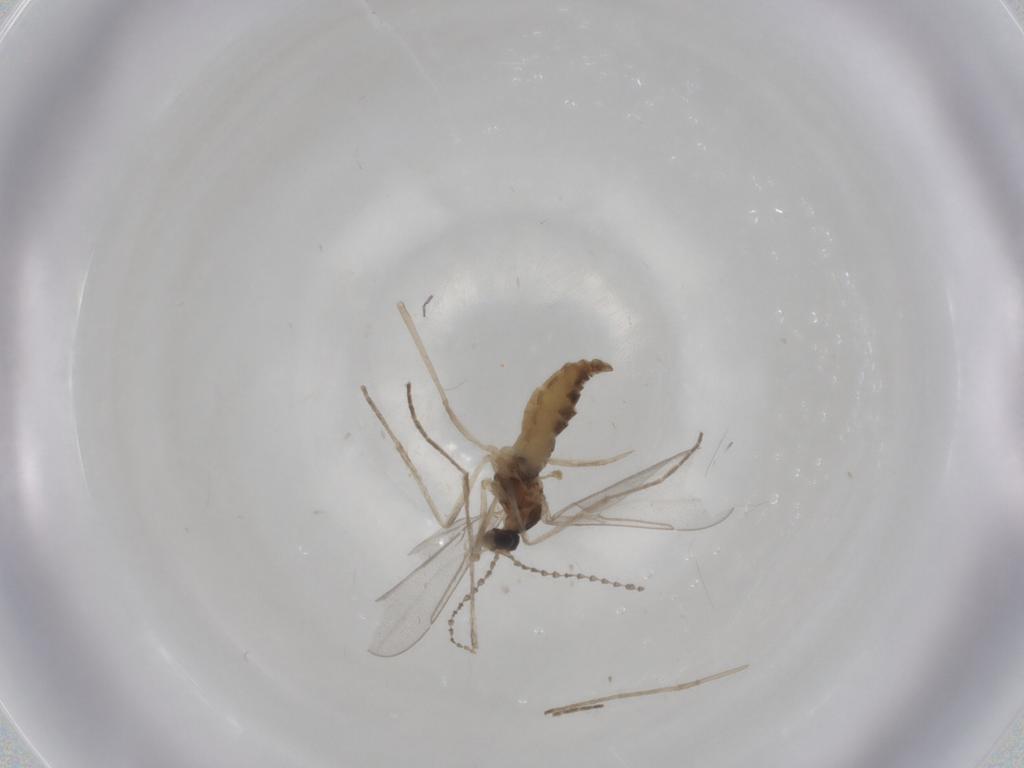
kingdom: Animalia
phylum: Arthropoda
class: Insecta
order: Diptera
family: Cecidomyiidae
